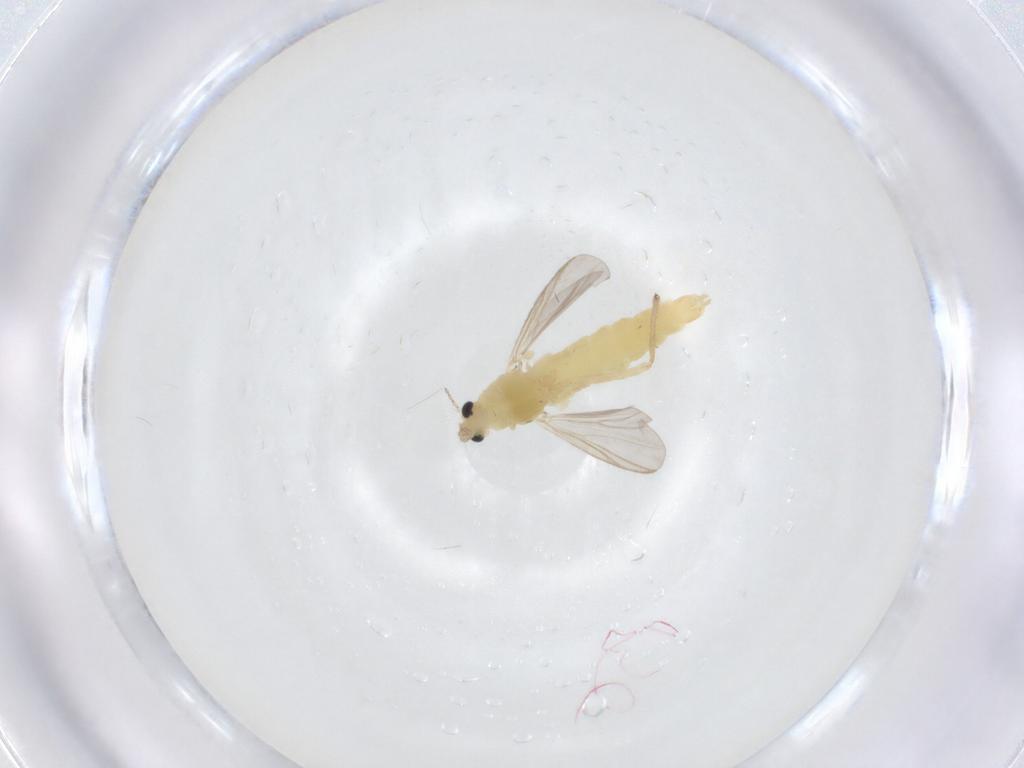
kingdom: Animalia
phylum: Arthropoda
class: Insecta
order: Diptera
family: Chironomidae
